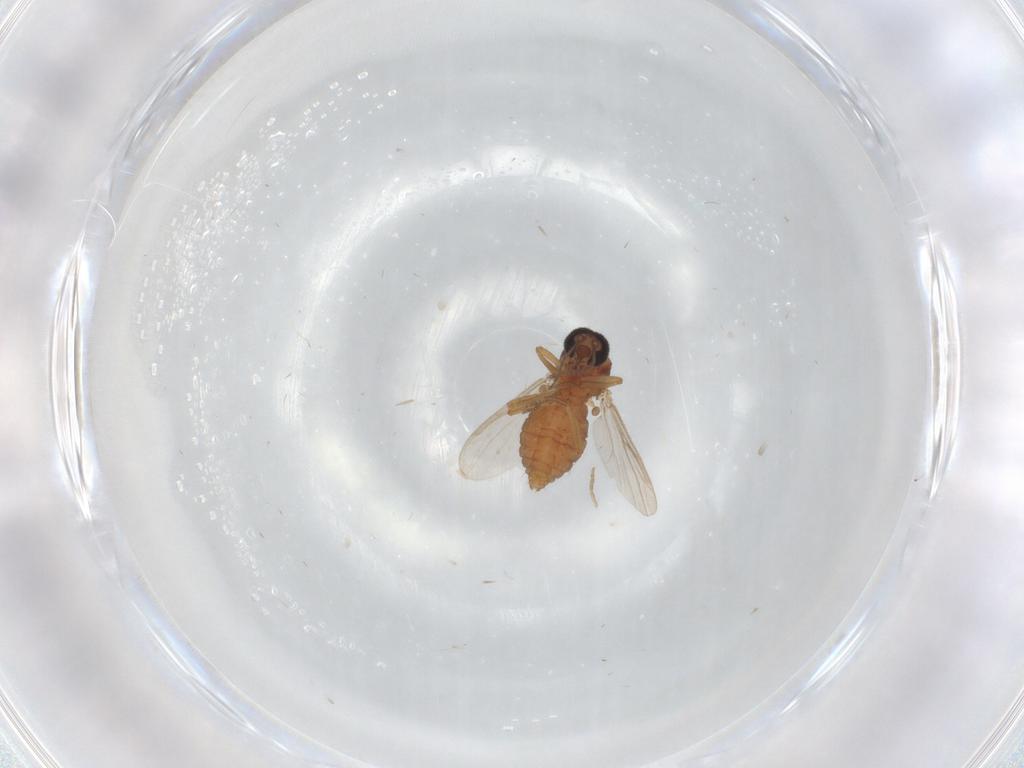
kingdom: Animalia
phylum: Arthropoda
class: Insecta
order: Diptera
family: Ceratopogonidae
